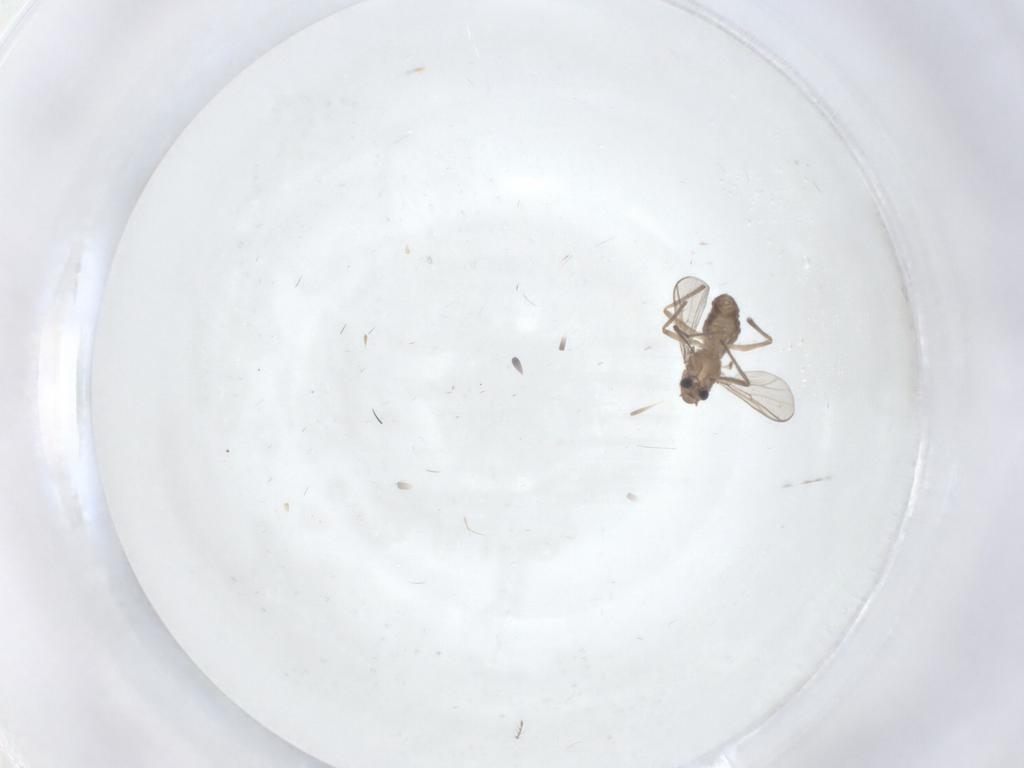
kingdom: Animalia
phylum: Arthropoda
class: Insecta
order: Diptera
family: Chironomidae
